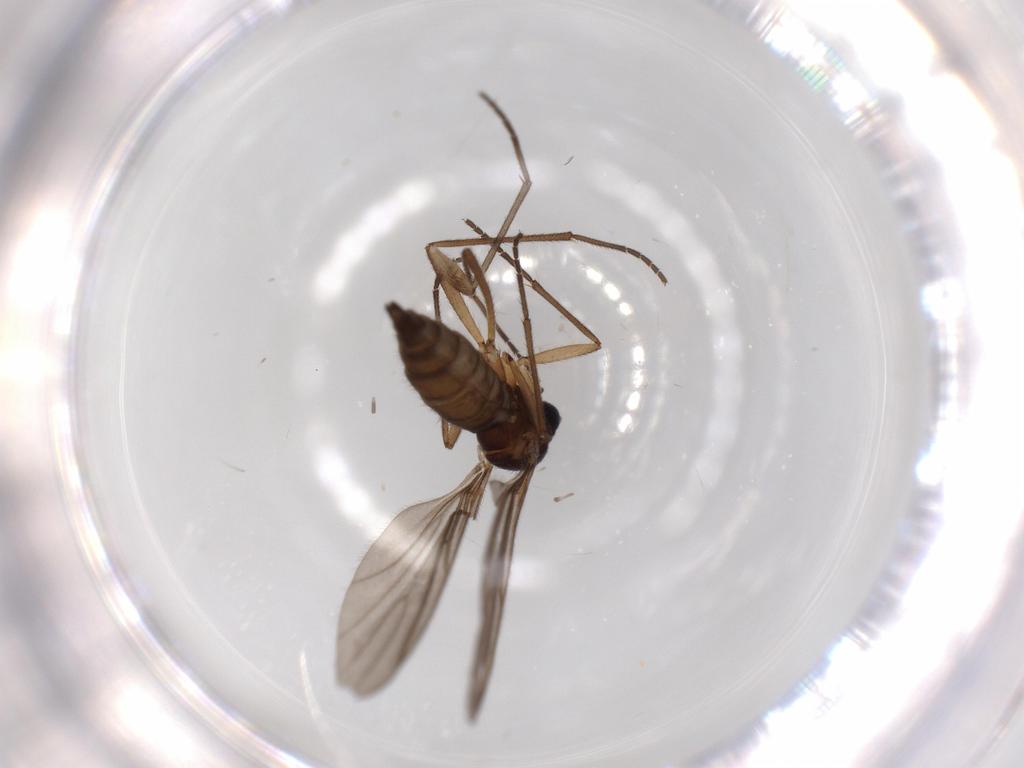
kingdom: Animalia
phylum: Arthropoda
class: Insecta
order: Diptera
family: Sciaridae
